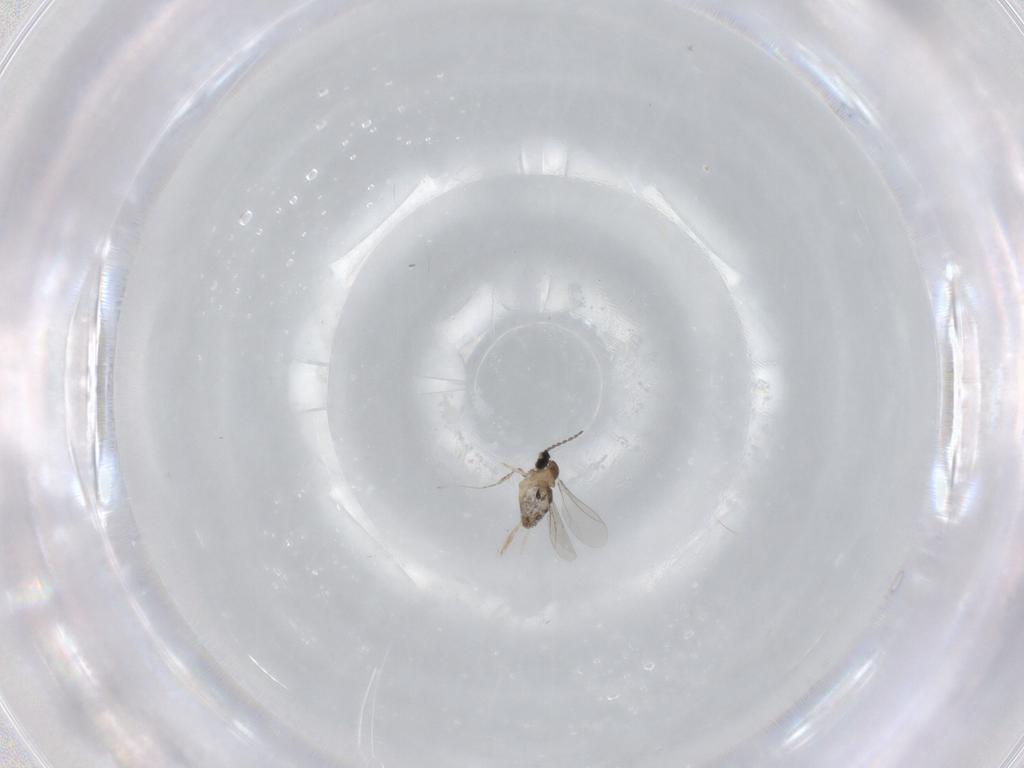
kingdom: Animalia
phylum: Arthropoda
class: Insecta
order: Diptera
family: Cecidomyiidae
